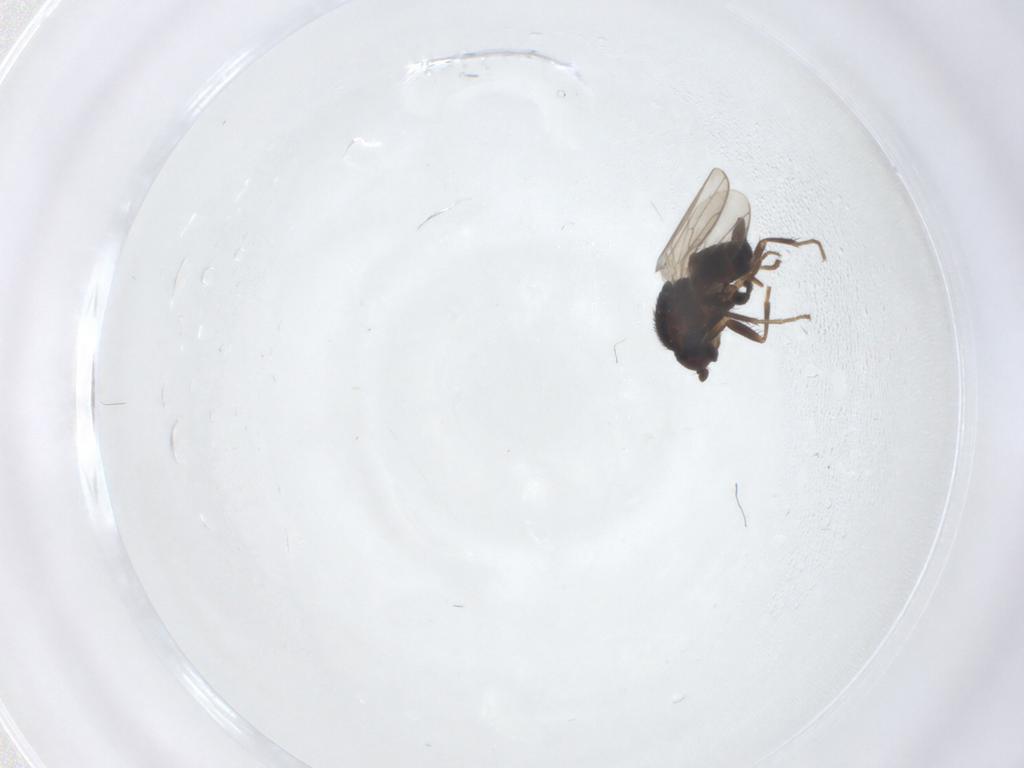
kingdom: Animalia
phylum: Arthropoda
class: Insecta
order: Diptera
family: Sphaeroceridae
